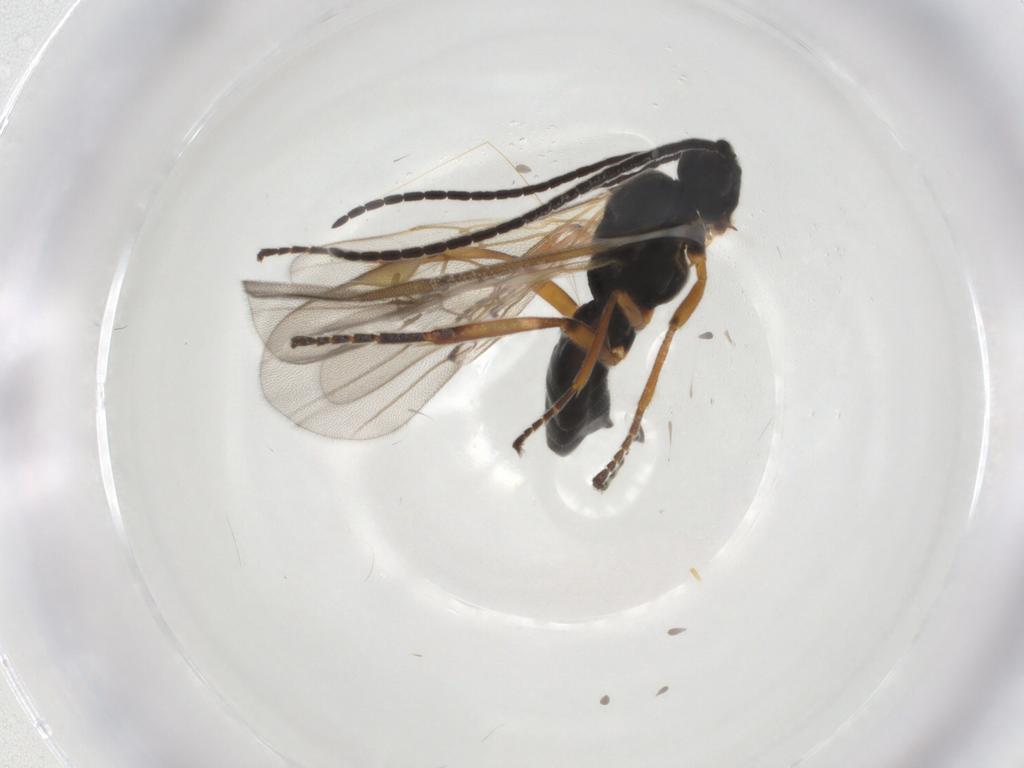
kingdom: Animalia
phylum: Arthropoda
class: Insecta
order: Hymenoptera
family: Braconidae
